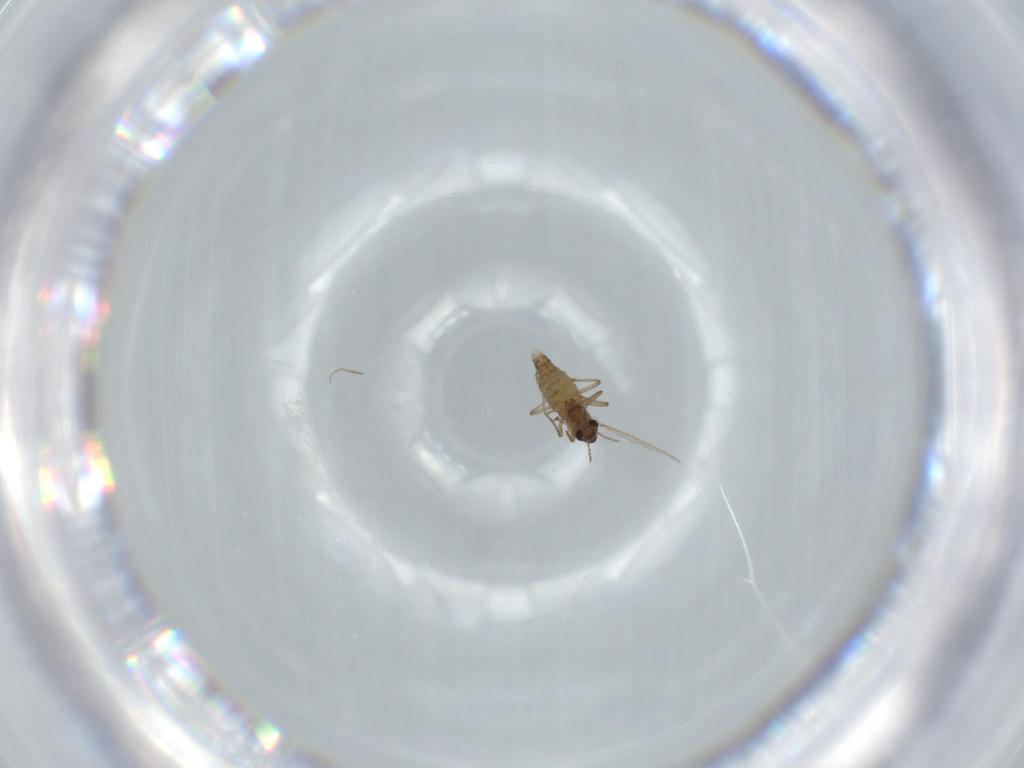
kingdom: Animalia
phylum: Arthropoda
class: Insecta
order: Diptera
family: Chironomidae
